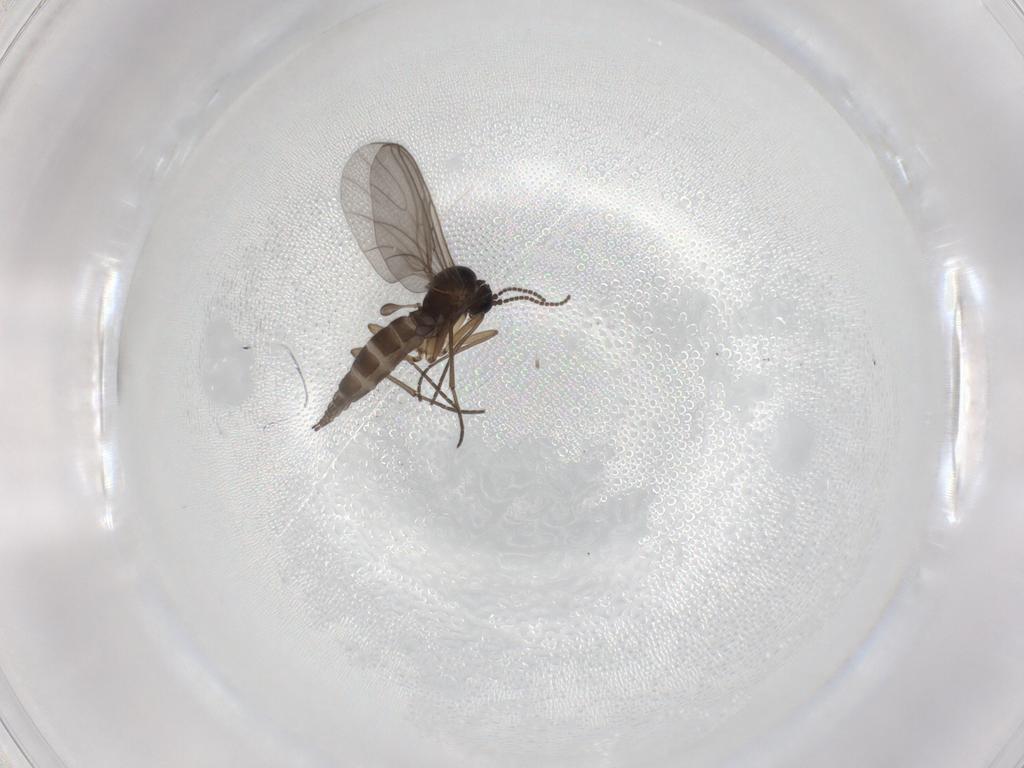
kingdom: Animalia
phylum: Arthropoda
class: Insecta
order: Diptera
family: Sciaridae
